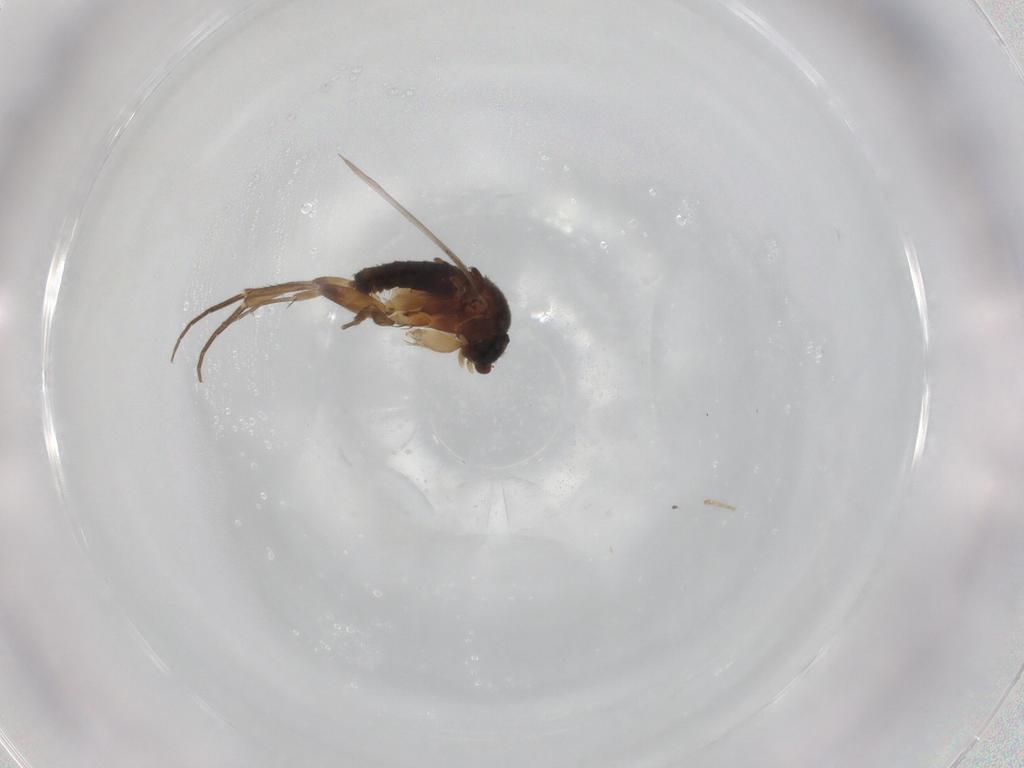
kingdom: Animalia
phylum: Arthropoda
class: Insecta
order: Diptera
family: Phoridae
